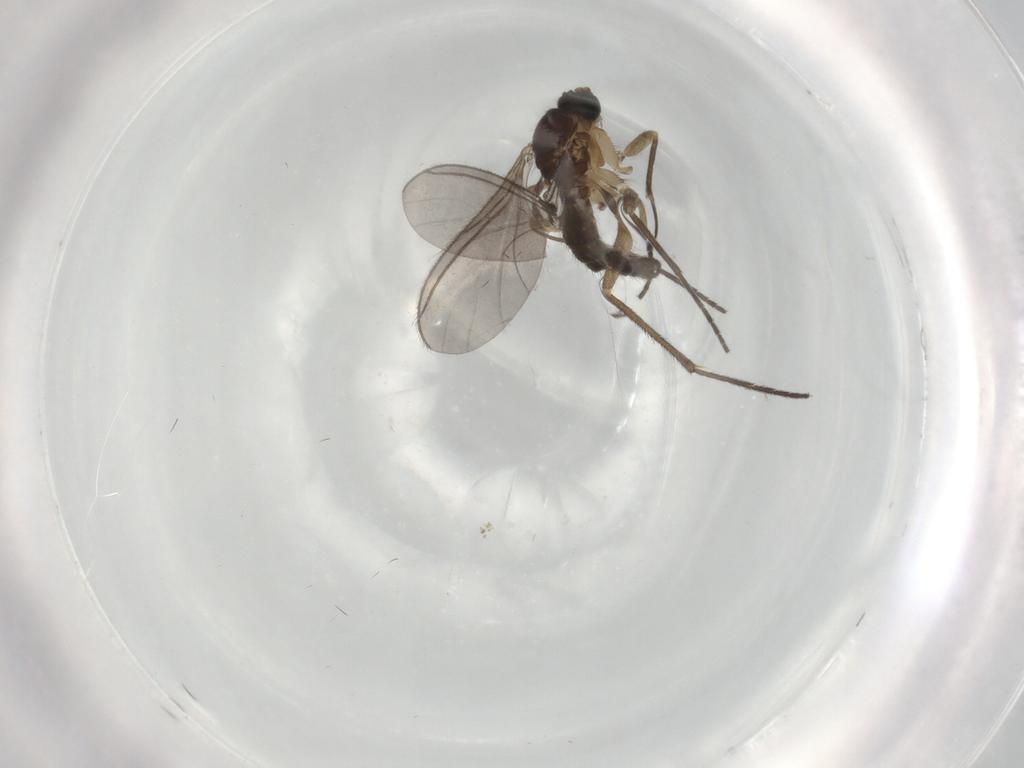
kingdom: Animalia
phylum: Arthropoda
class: Insecta
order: Diptera
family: Sciaridae
